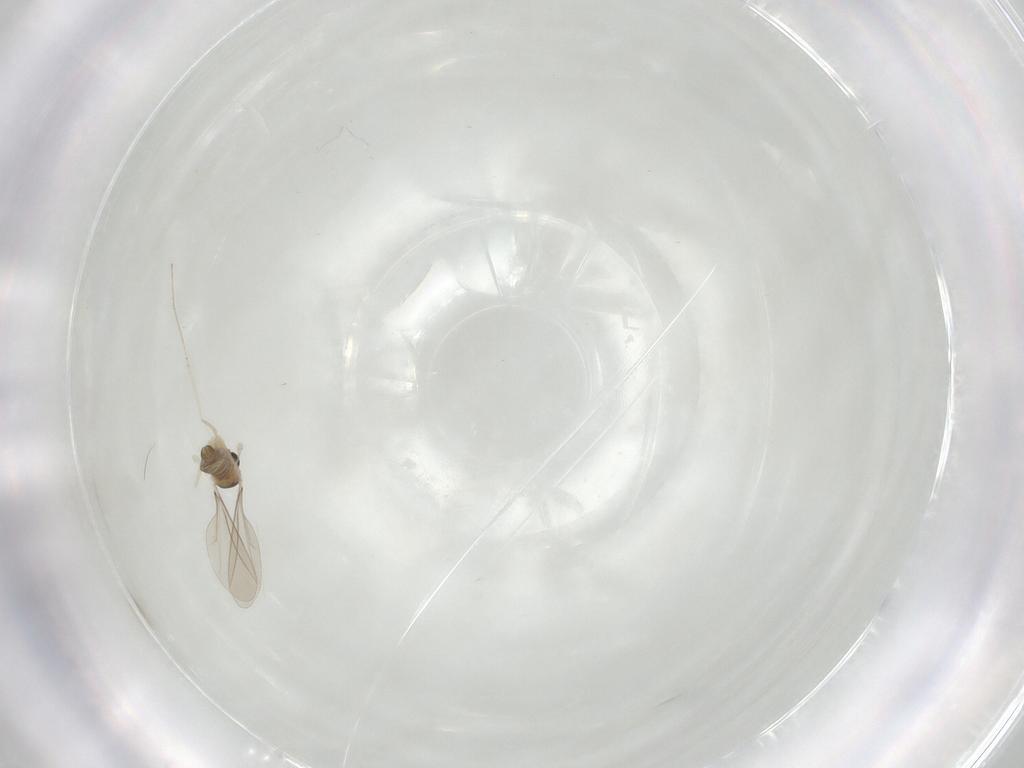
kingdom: Animalia
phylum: Arthropoda
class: Insecta
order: Diptera
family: Cecidomyiidae
